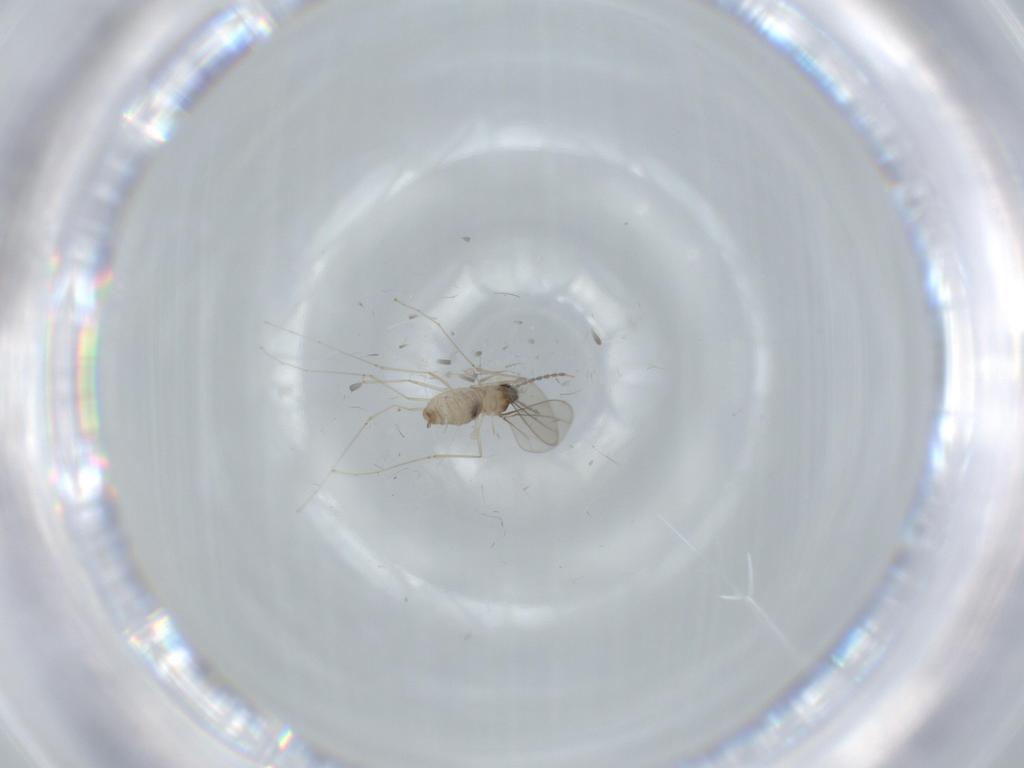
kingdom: Animalia
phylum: Arthropoda
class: Insecta
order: Diptera
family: Cecidomyiidae
